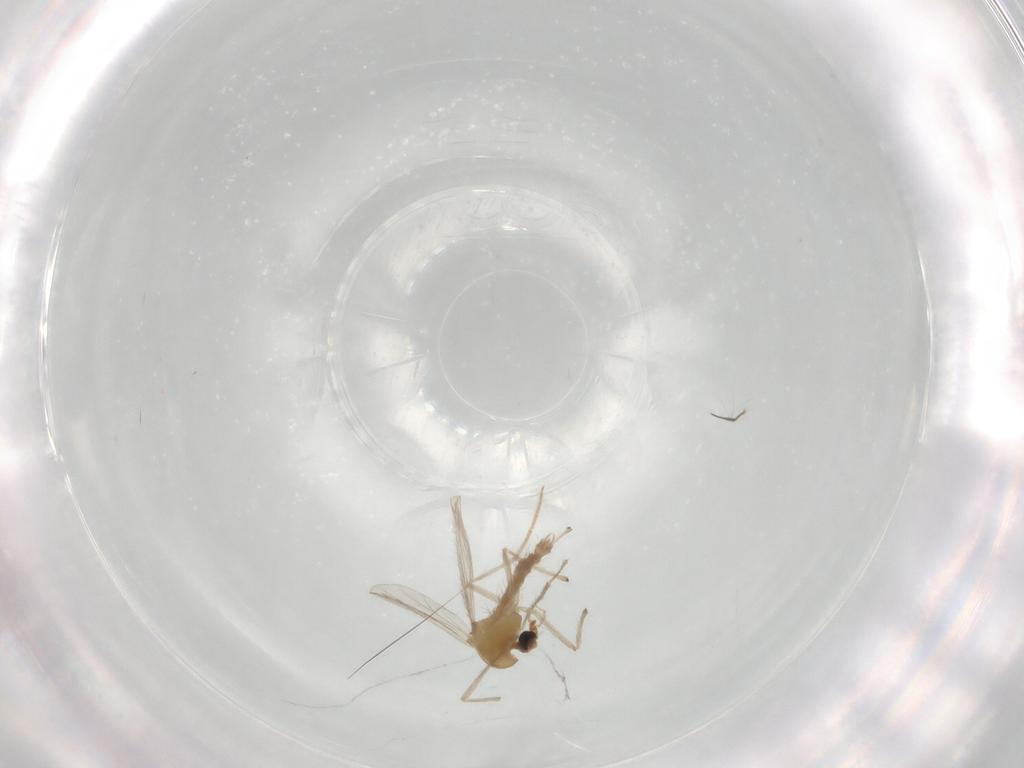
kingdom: Animalia
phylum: Arthropoda
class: Insecta
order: Diptera
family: Chironomidae
